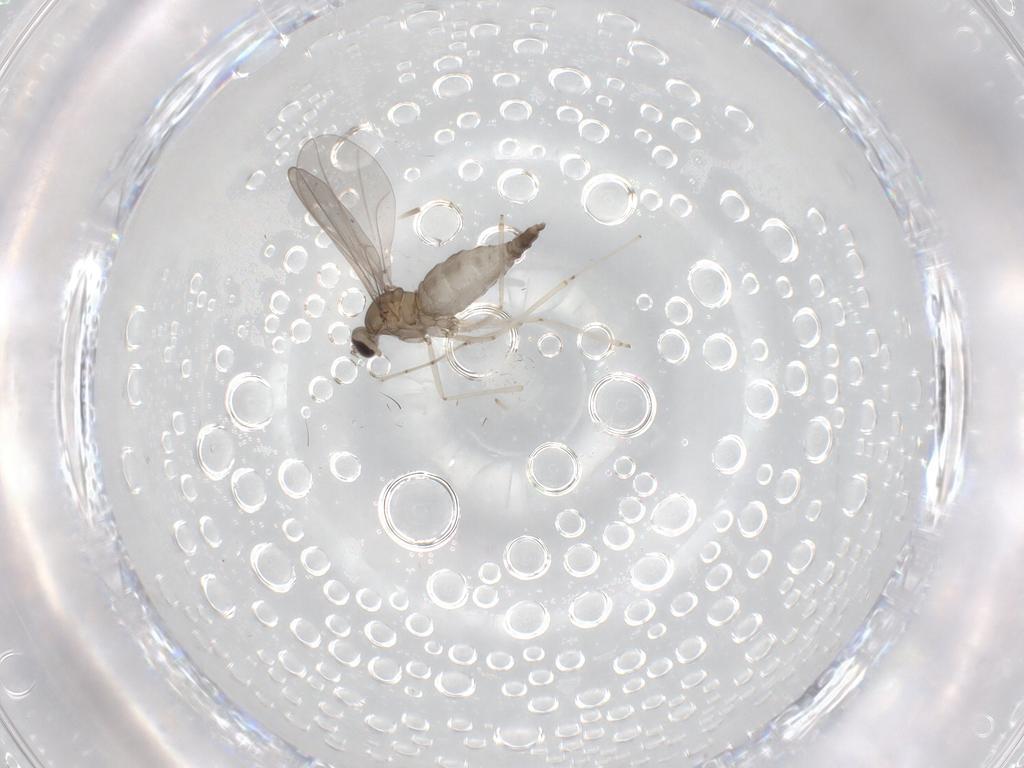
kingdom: Animalia
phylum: Arthropoda
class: Insecta
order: Diptera
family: Cecidomyiidae
